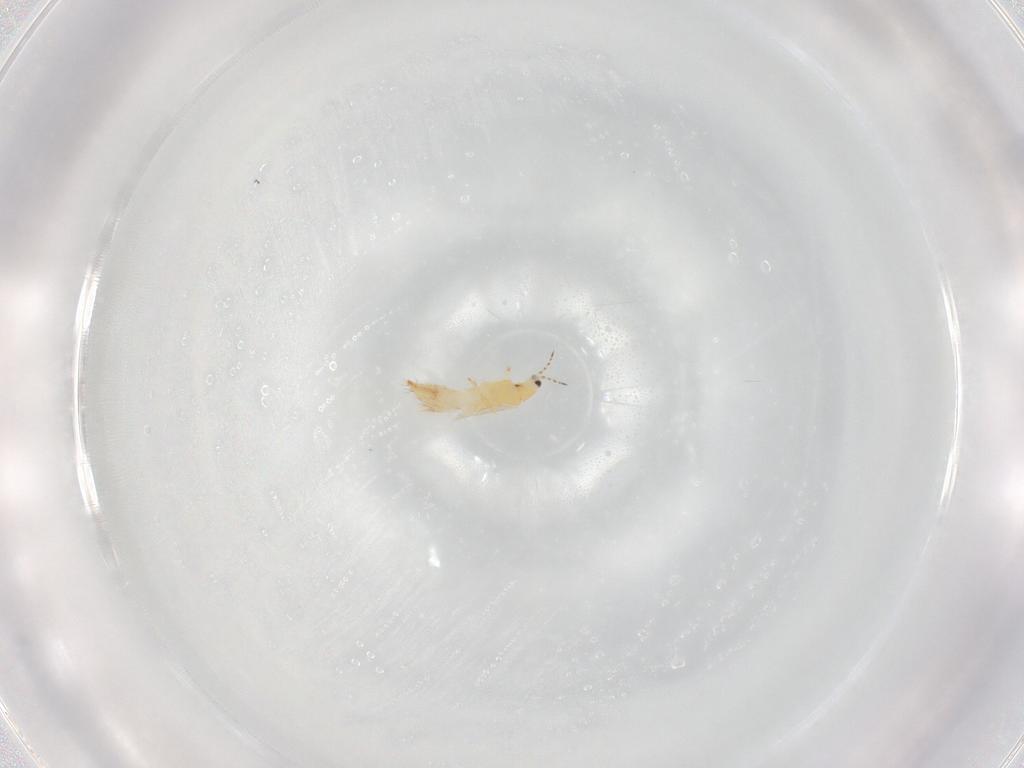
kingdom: Animalia
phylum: Arthropoda
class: Insecta
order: Thysanoptera
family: Thripidae
